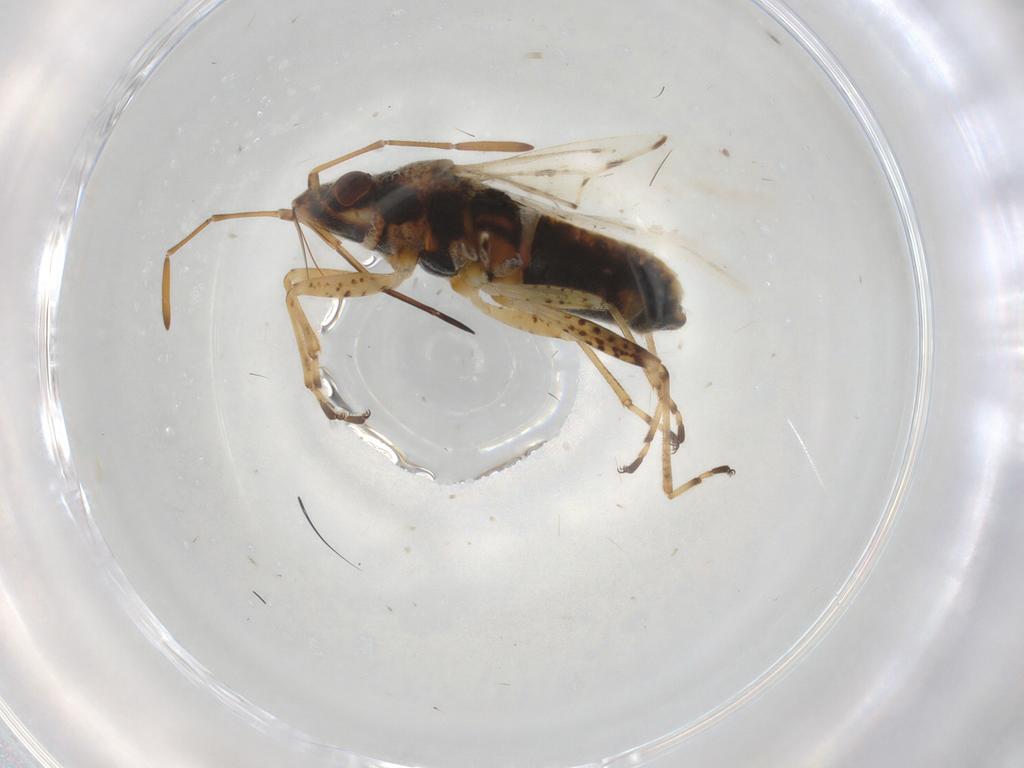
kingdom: Animalia
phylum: Arthropoda
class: Insecta
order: Hemiptera
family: Lygaeidae
